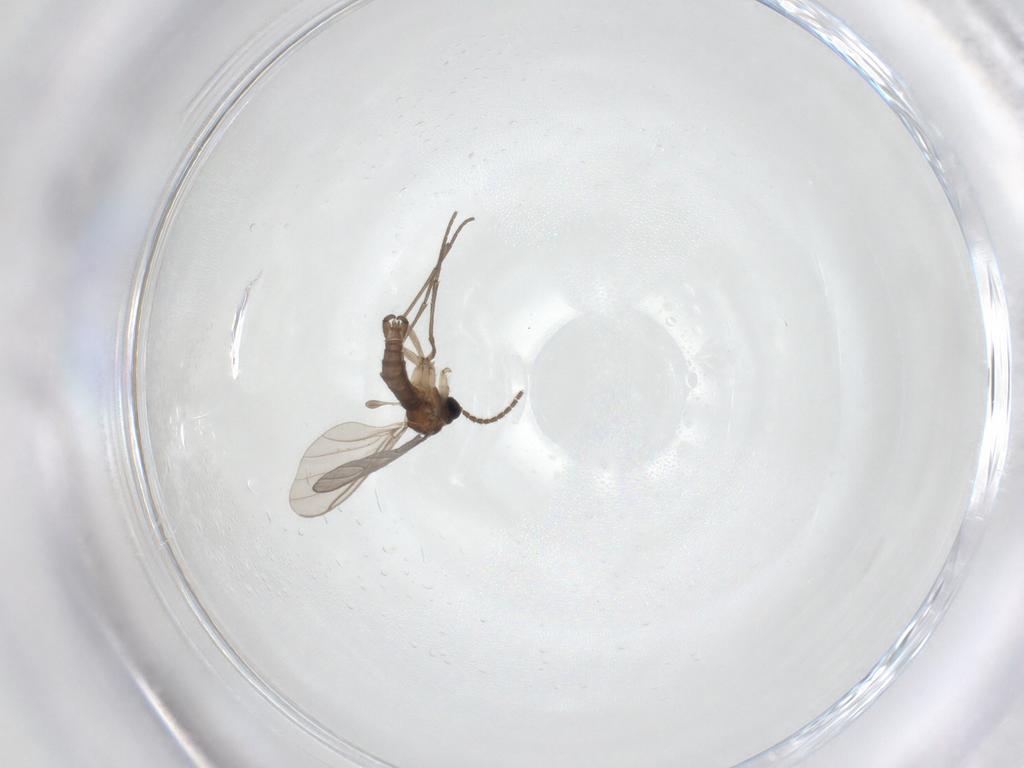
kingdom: Animalia
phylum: Arthropoda
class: Insecta
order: Diptera
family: Sciaridae
